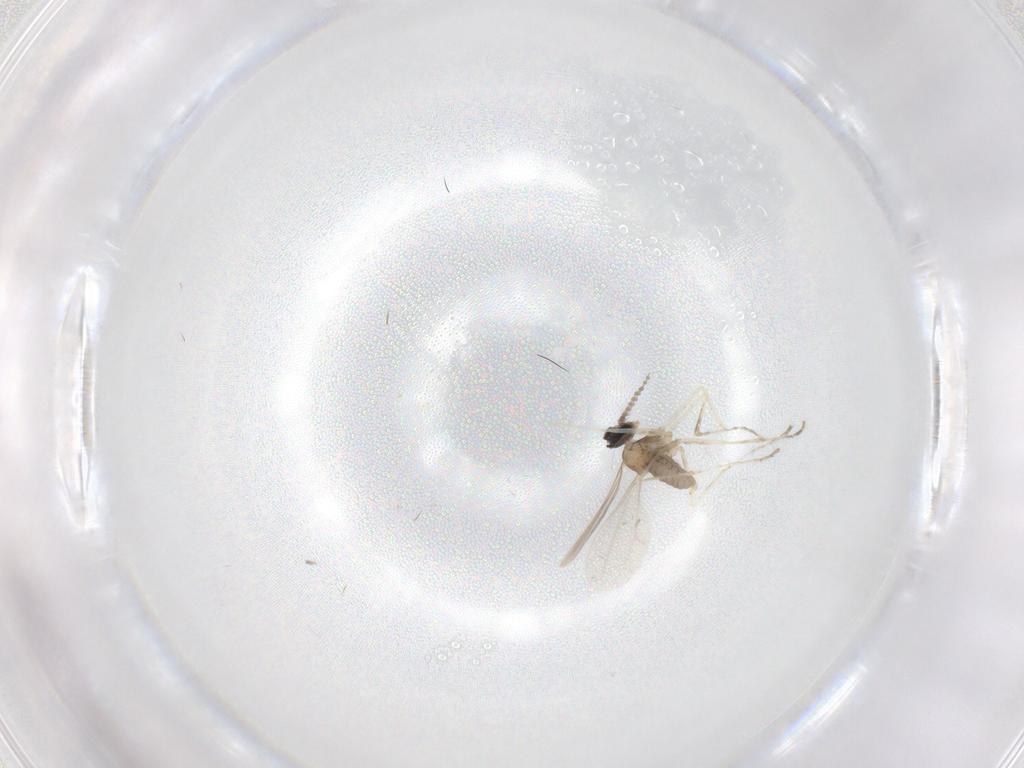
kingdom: Animalia
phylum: Arthropoda
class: Insecta
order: Diptera
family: Cecidomyiidae
